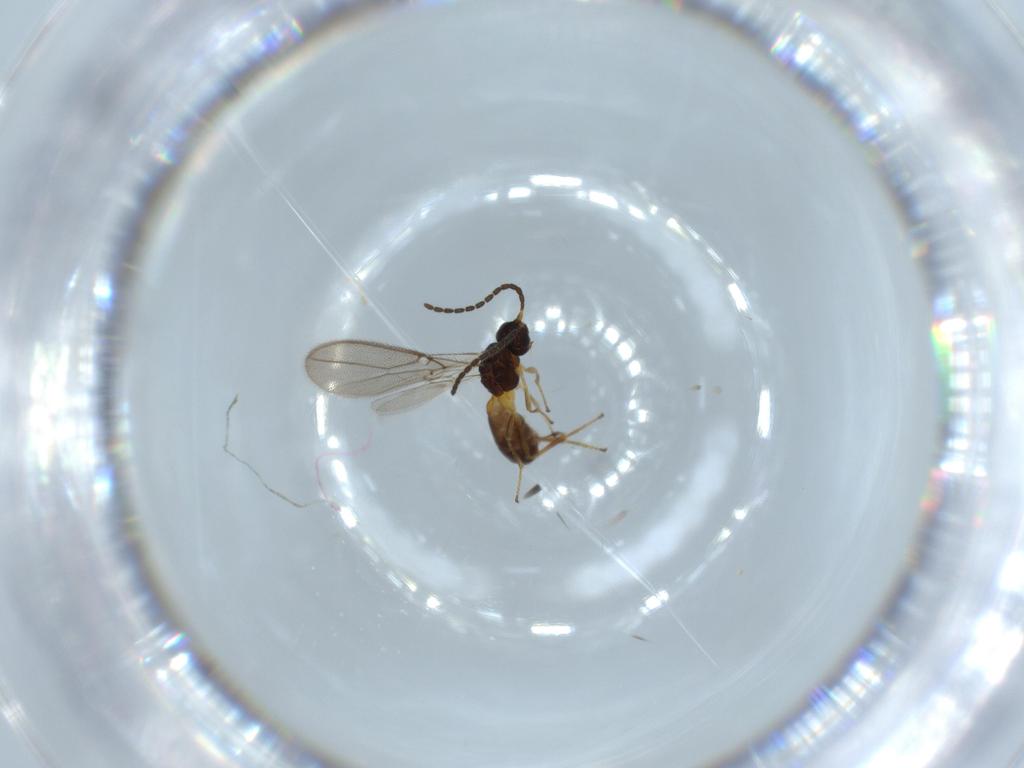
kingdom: Animalia
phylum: Arthropoda
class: Insecta
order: Hymenoptera
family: Braconidae
